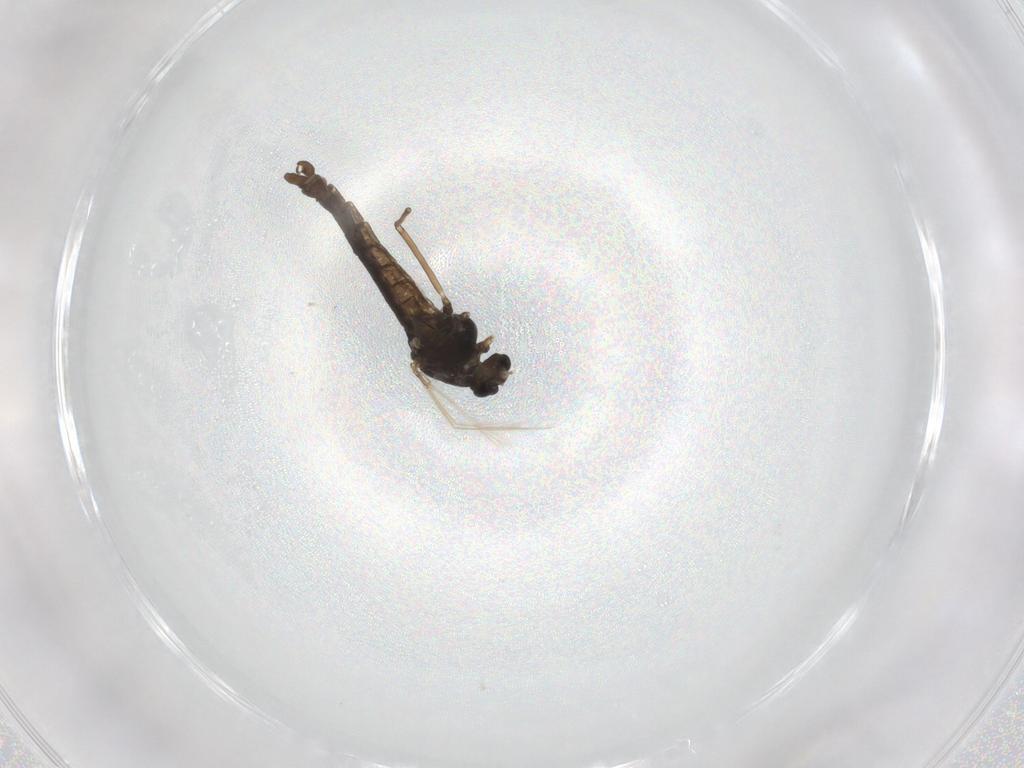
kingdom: Animalia
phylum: Arthropoda
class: Insecta
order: Diptera
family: Chironomidae
